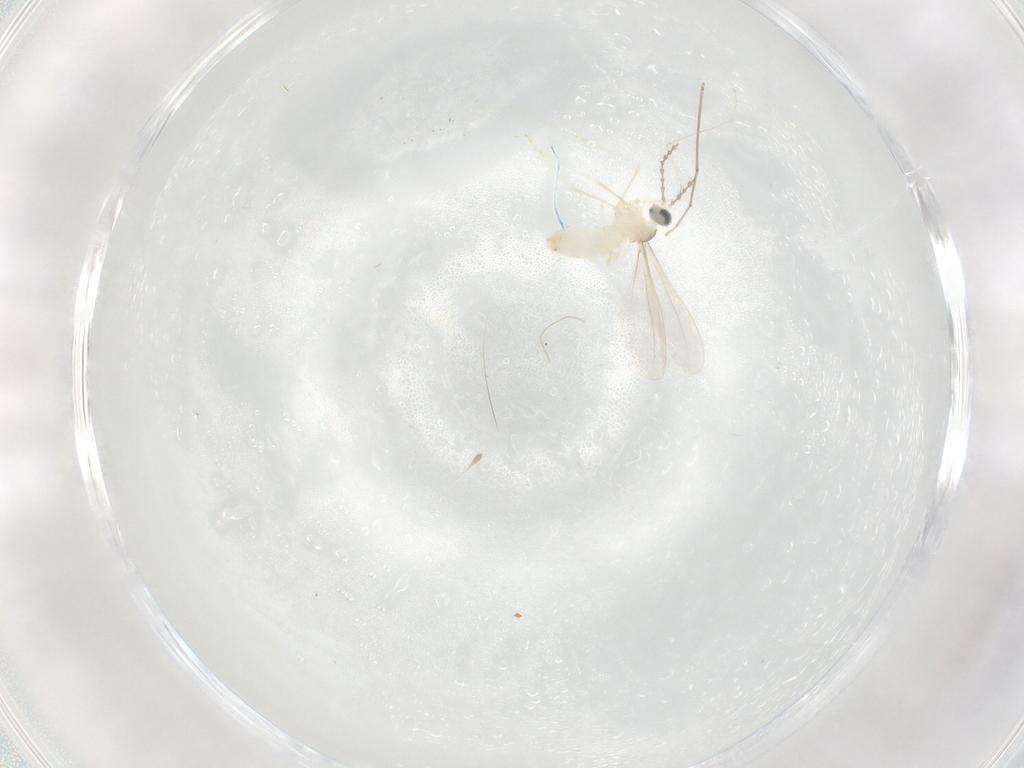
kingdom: Animalia
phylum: Arthropoda
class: Insecta
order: Diptera
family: Cecidomyiidae
